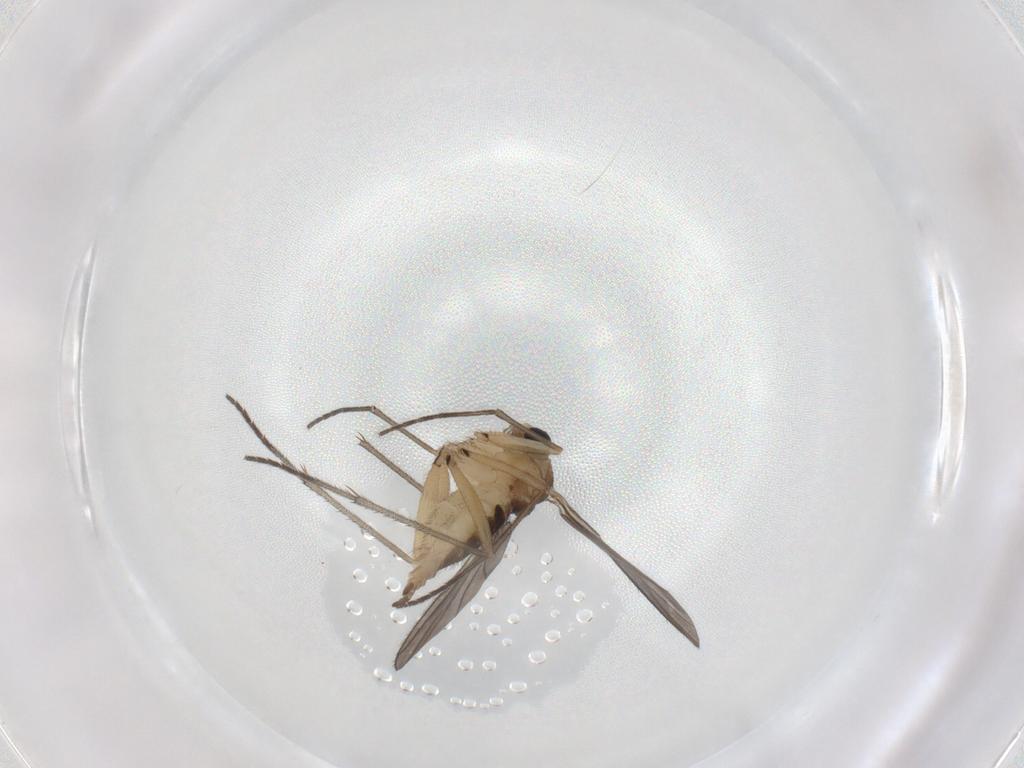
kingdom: Animalia
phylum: Arthropoda
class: Insecta
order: Diptera
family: Sciaridae
